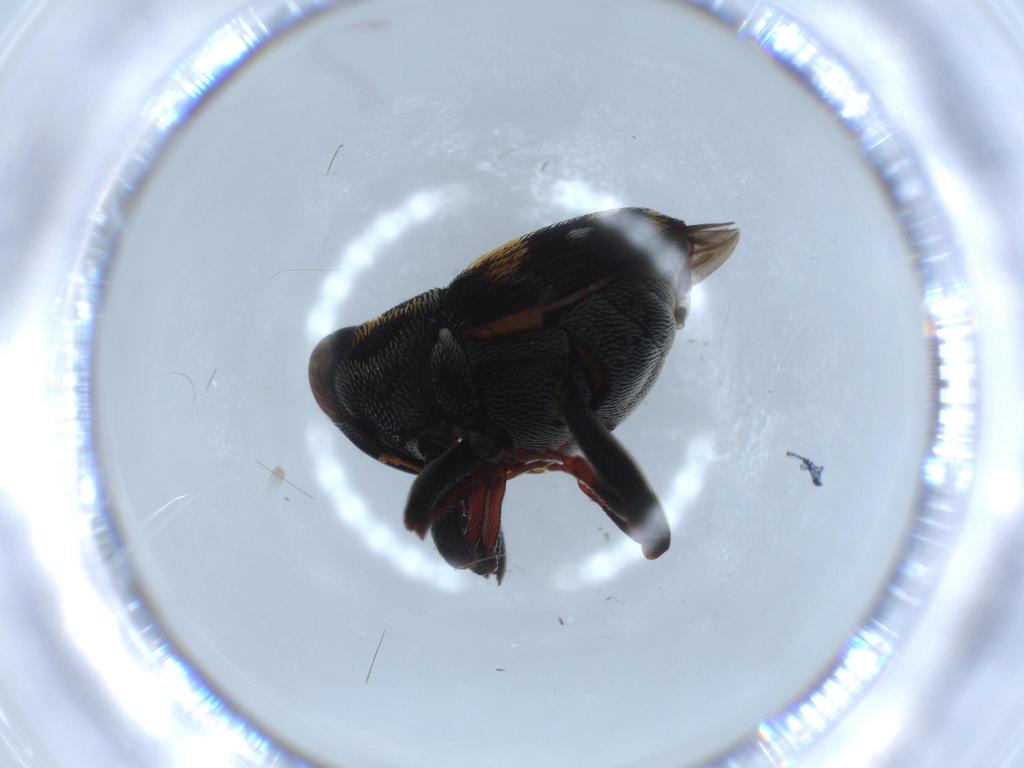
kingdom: Animalia
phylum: Arthropoda
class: Insecta
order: Coleoptera
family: Curculionidae
